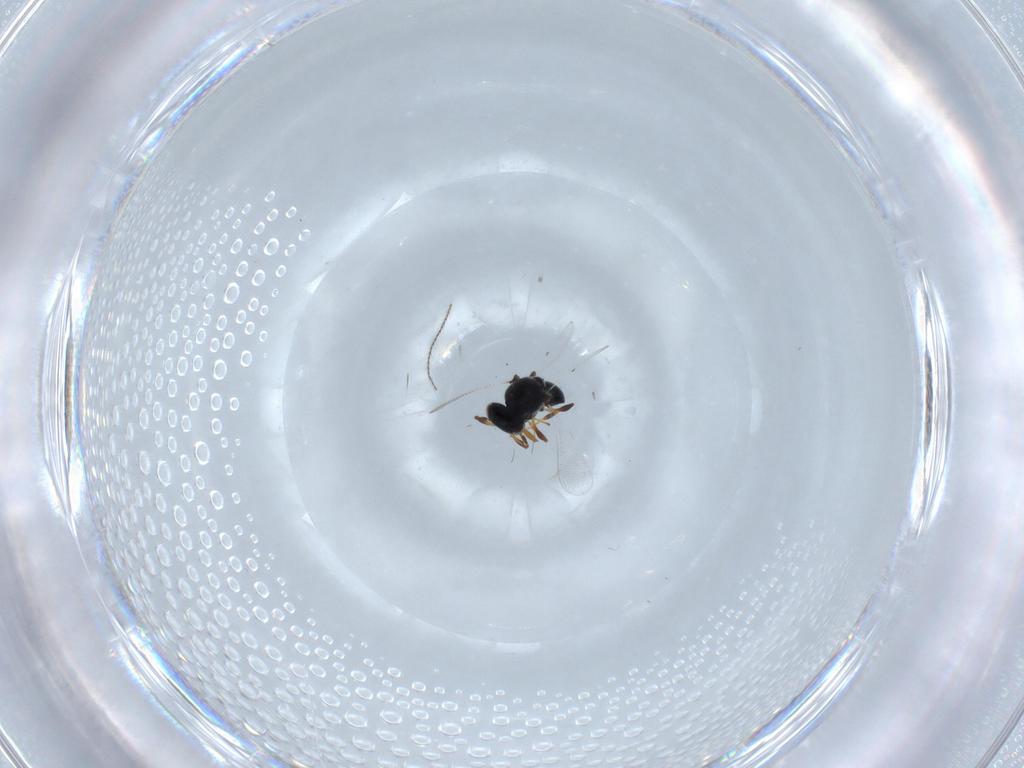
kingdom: Animalia
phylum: Arthropoda
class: Insecta
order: Hymenoptera
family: Platygastridae
